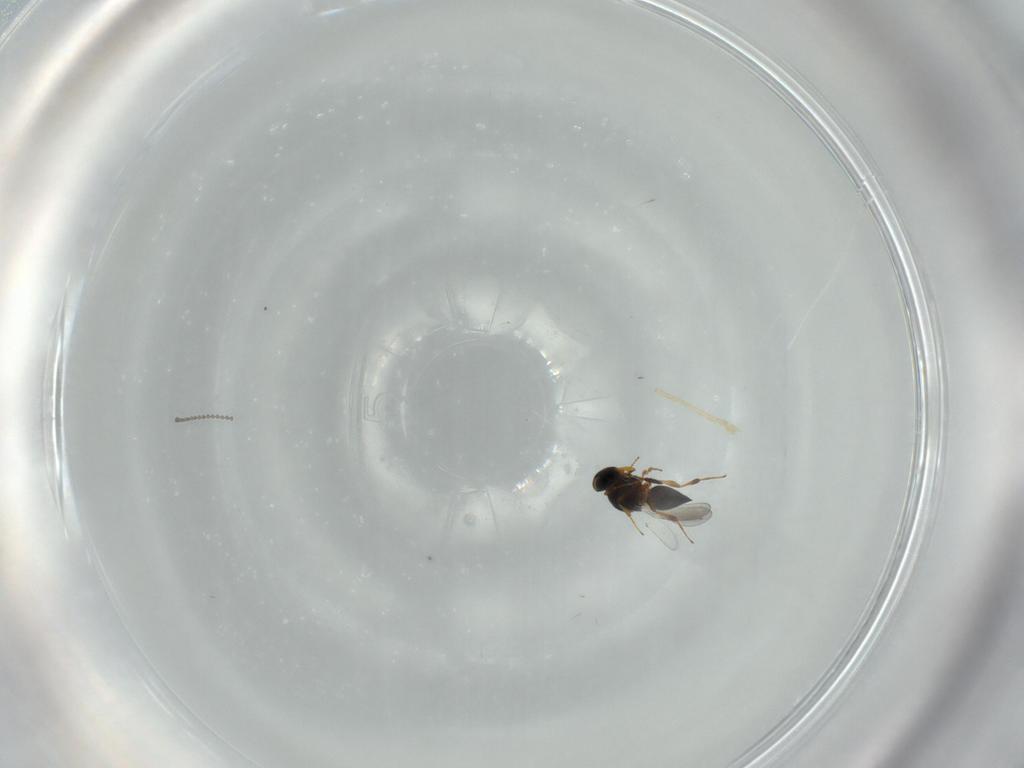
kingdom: Animalia
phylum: Arthropoda
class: Insecta
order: Hymenoptera
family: Platygastridae
